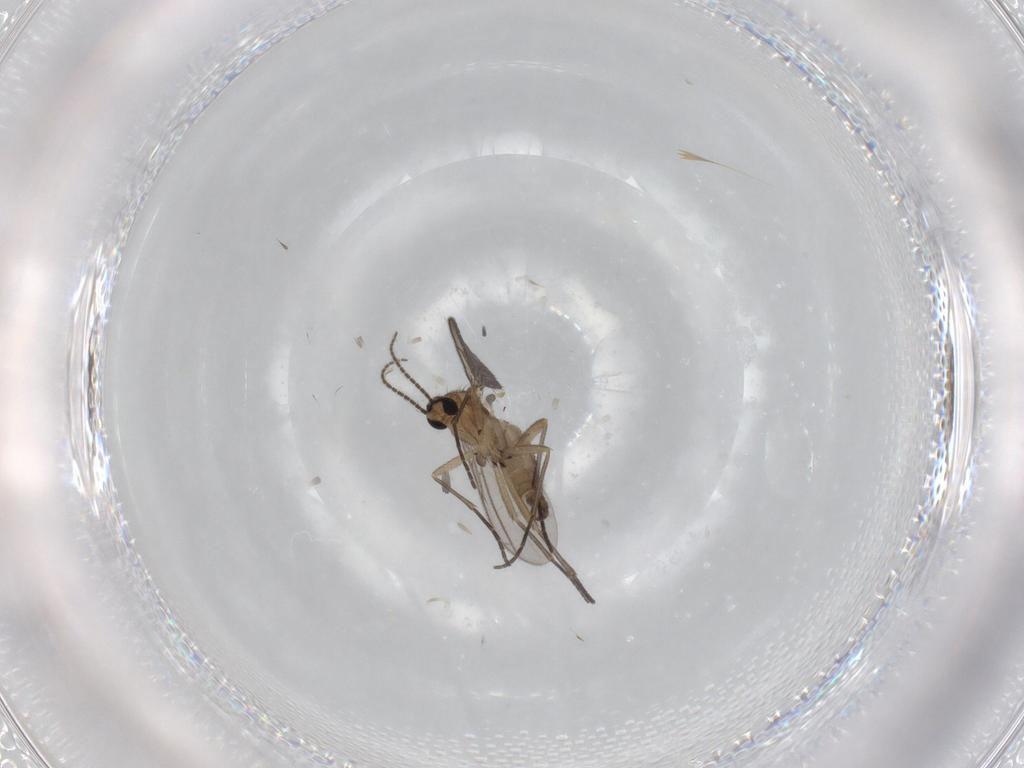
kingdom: Animalia
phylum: Arthropoda
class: Insecta
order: Diptera
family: Sciaridae
